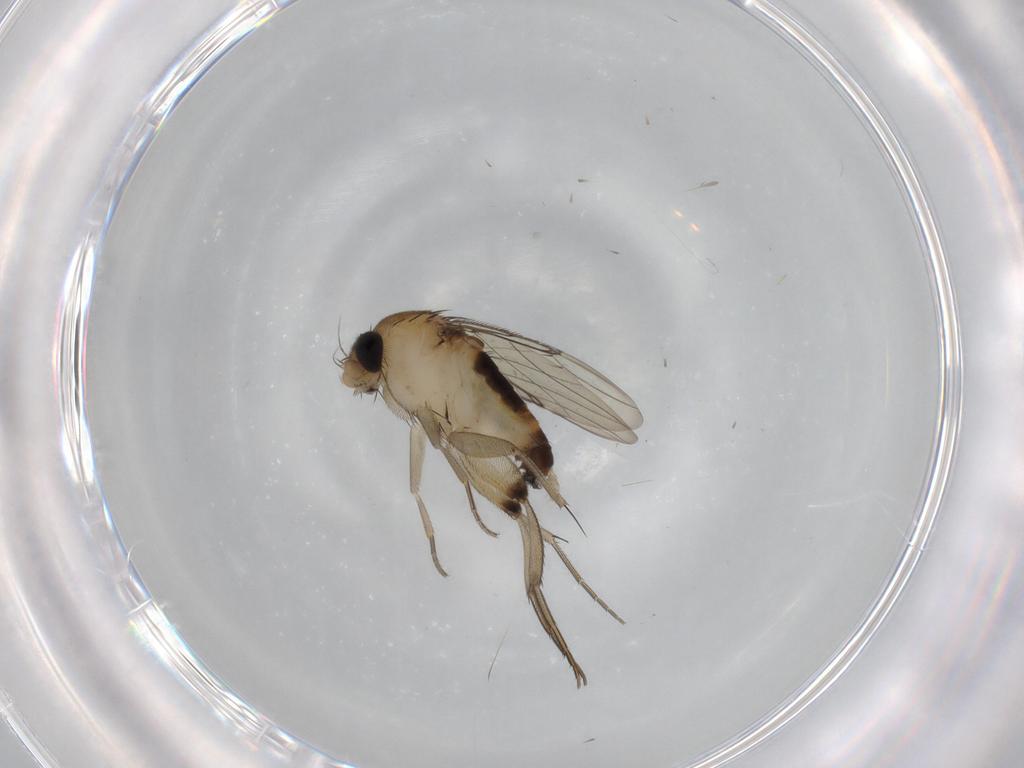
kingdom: Animalia
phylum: Arthropoda
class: Insecta
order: Diptera
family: Phoridae
